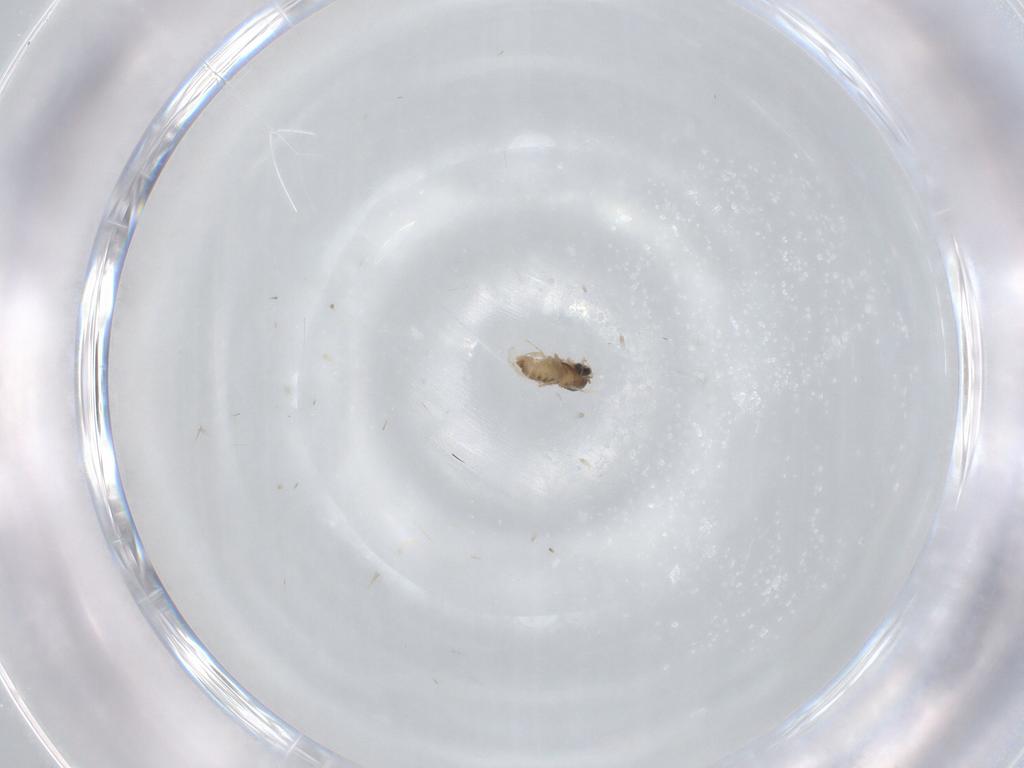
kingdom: Animalia
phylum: Arthropoda
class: Insecta
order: Diptera
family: Cecidomyiidae
